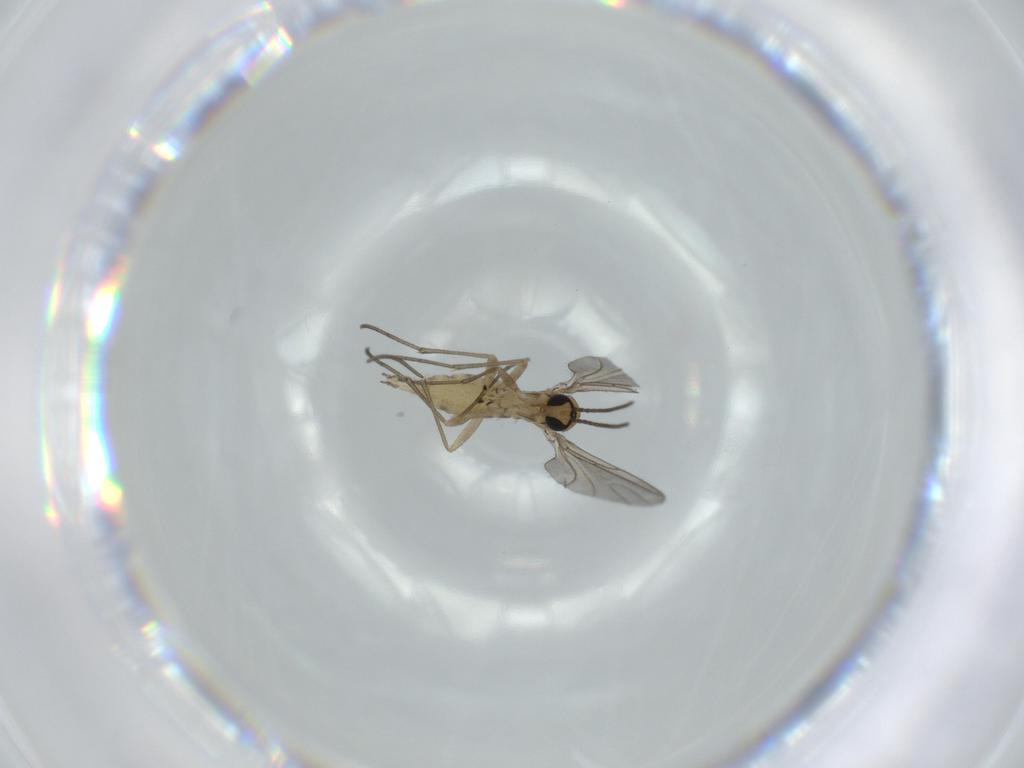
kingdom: Animalia
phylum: Arthropoda
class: Insecta
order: Diptera
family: Sciaridae
